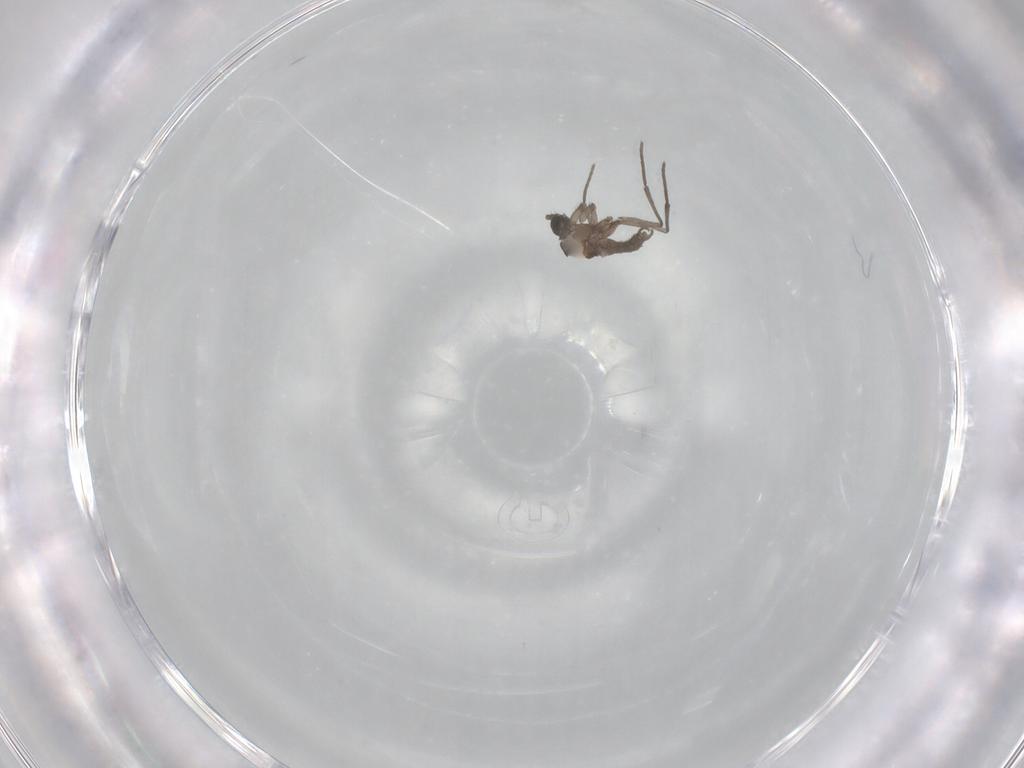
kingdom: Animalia
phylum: Arthropoda
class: Insecta
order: Diptera
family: Sciaridae
